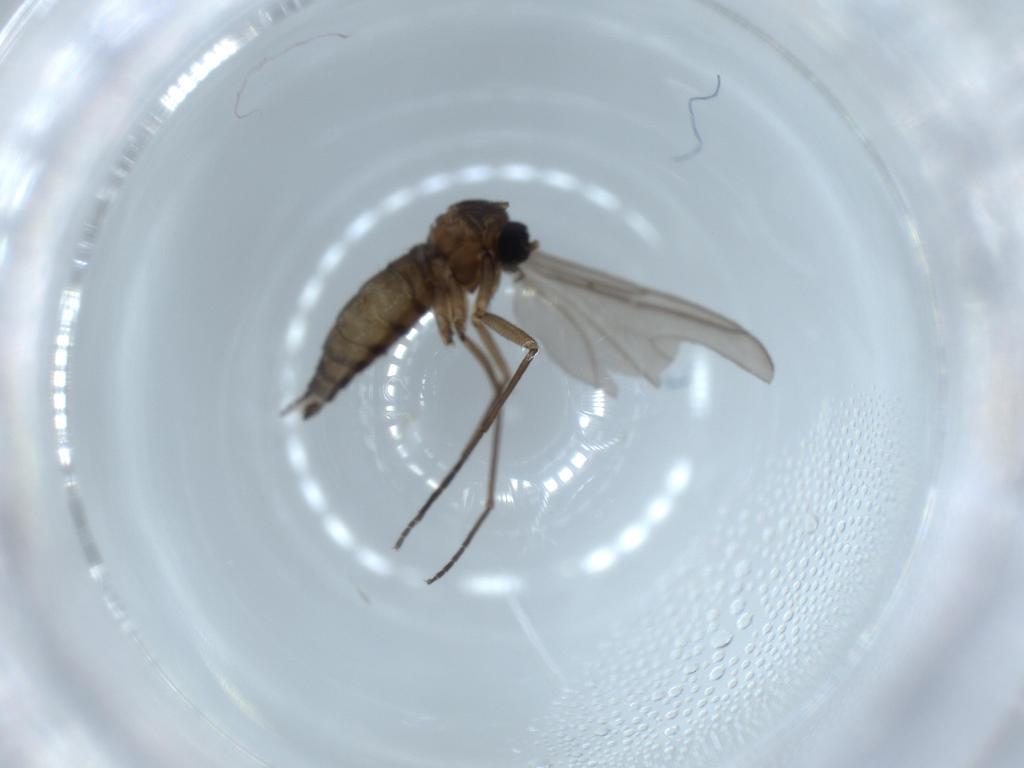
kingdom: Animalia
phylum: Arthropoda
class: Insecta
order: Diptera
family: Sciaridae
